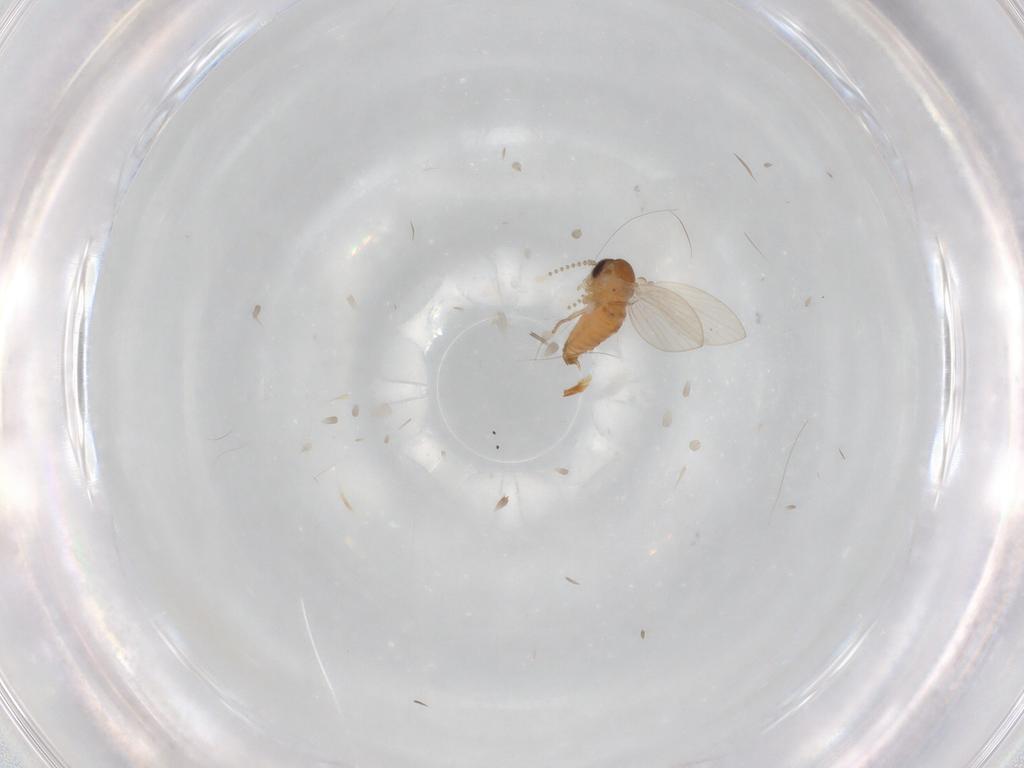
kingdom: Animalia
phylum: Arthropoda
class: Insecta
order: Diptera
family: Psychodidae
